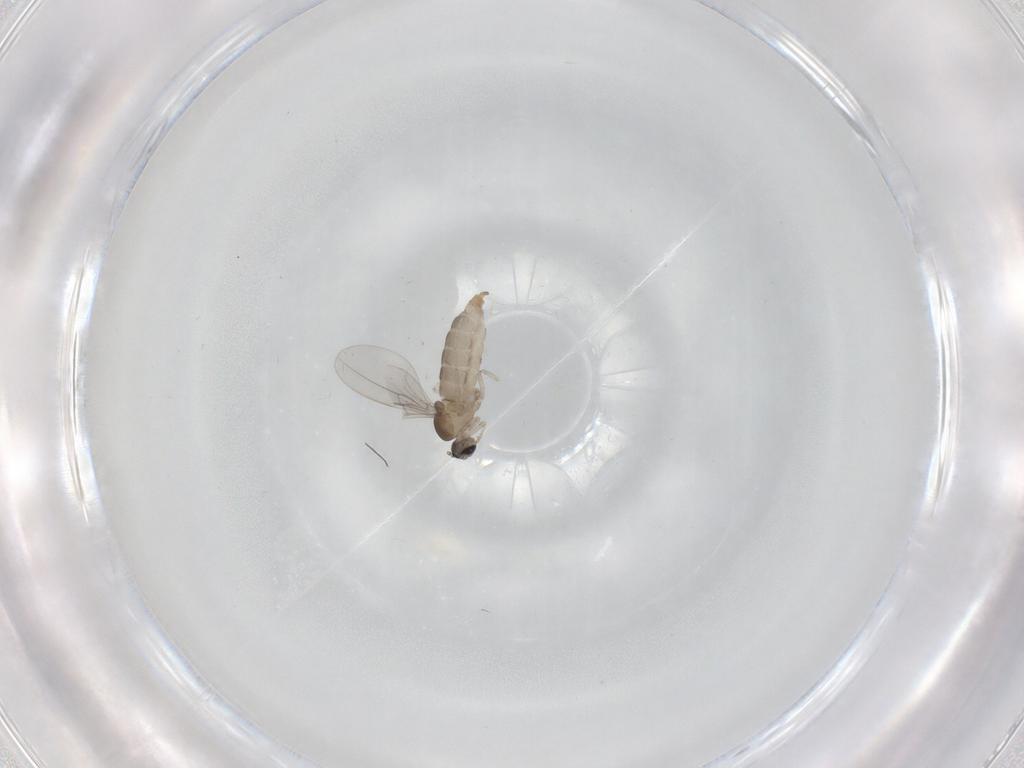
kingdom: Animalia
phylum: Arthropoda
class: Insecta
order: Diptera
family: Cecidomyiidae
